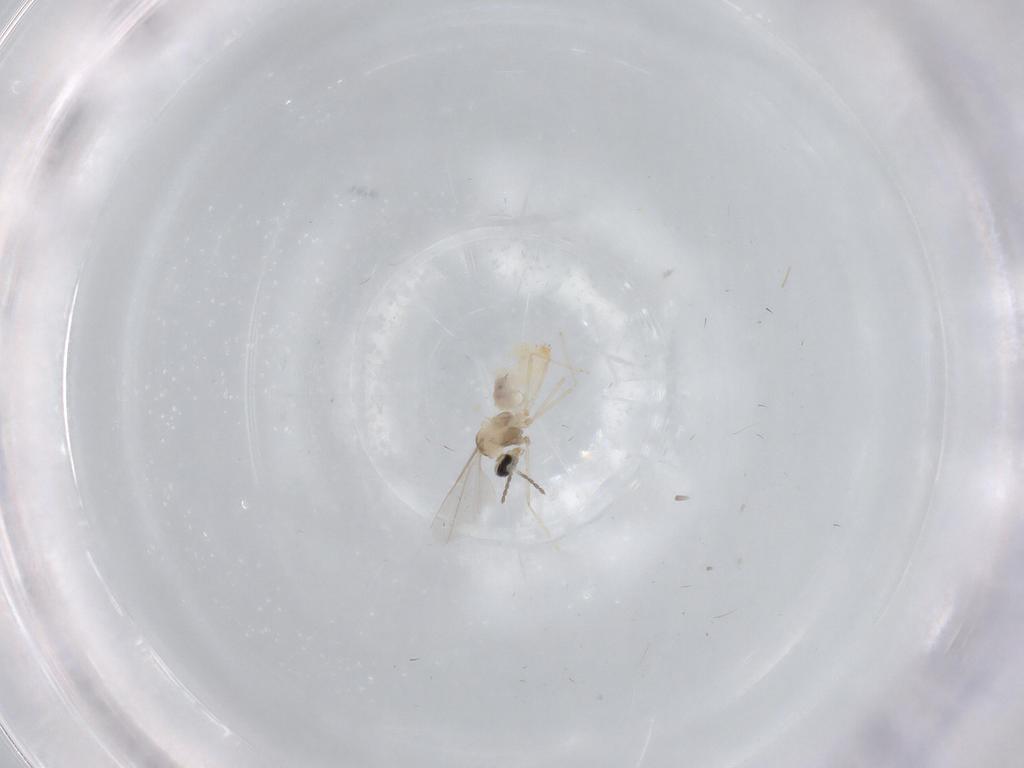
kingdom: Animalia
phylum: Arthropoda
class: Insecta
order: Diptera
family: Cecidomyiidae
